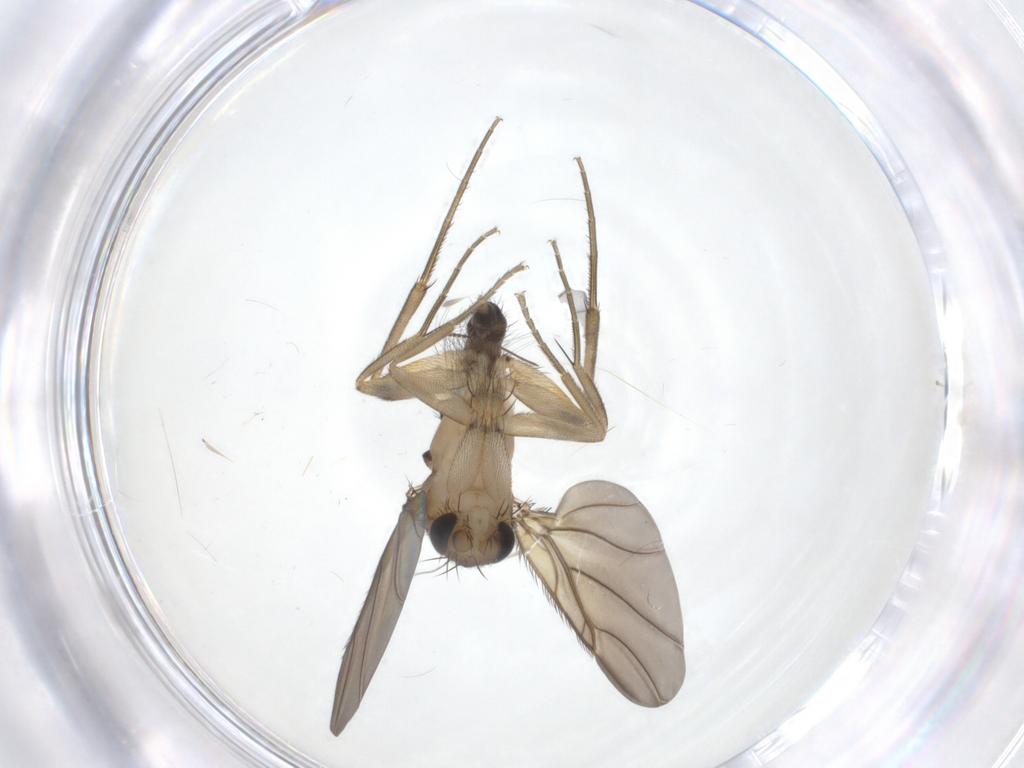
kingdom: Animalia
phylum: Arthropoda
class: Insecta
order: Diptera
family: Phoridae
